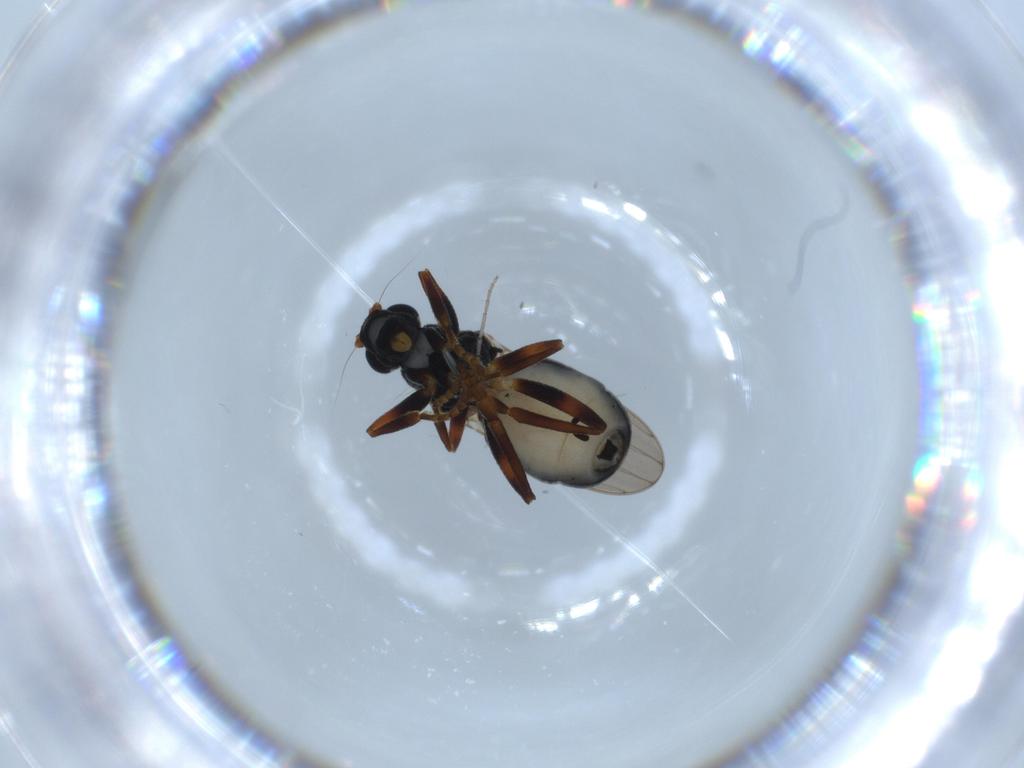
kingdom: Animalia
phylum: Arthropoda
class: Insecta
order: Diptera
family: Sphaeroceridae
